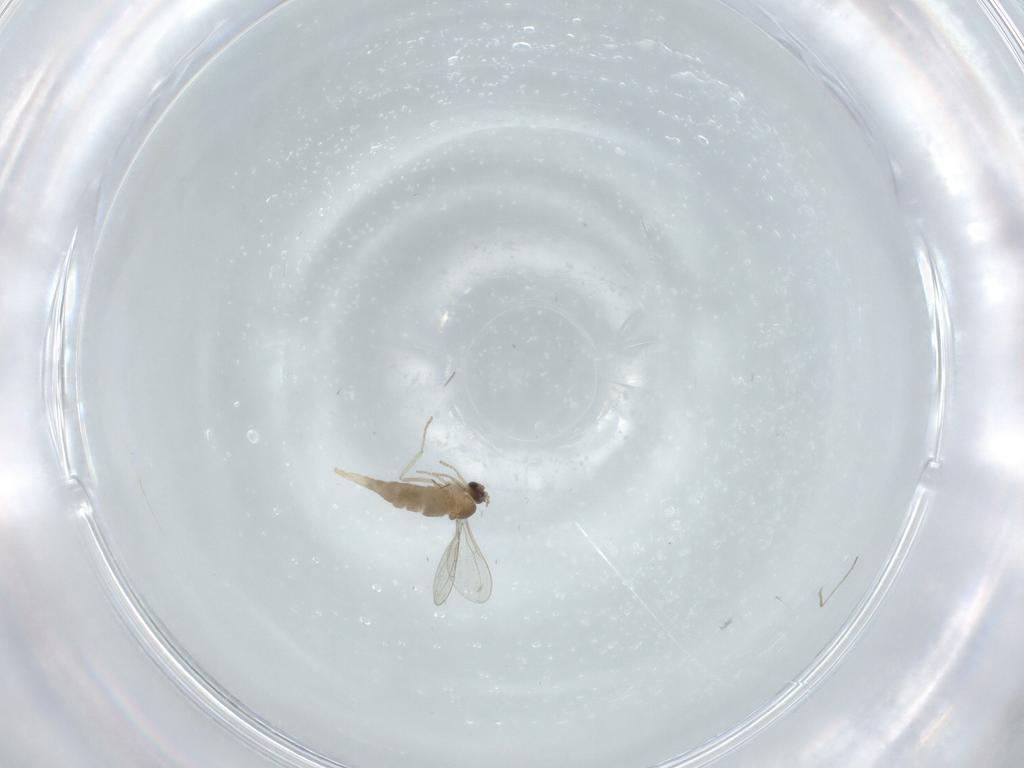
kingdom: Animalia
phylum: Arthropoda
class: Insecta
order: Diptera
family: Cecidomyiidae
